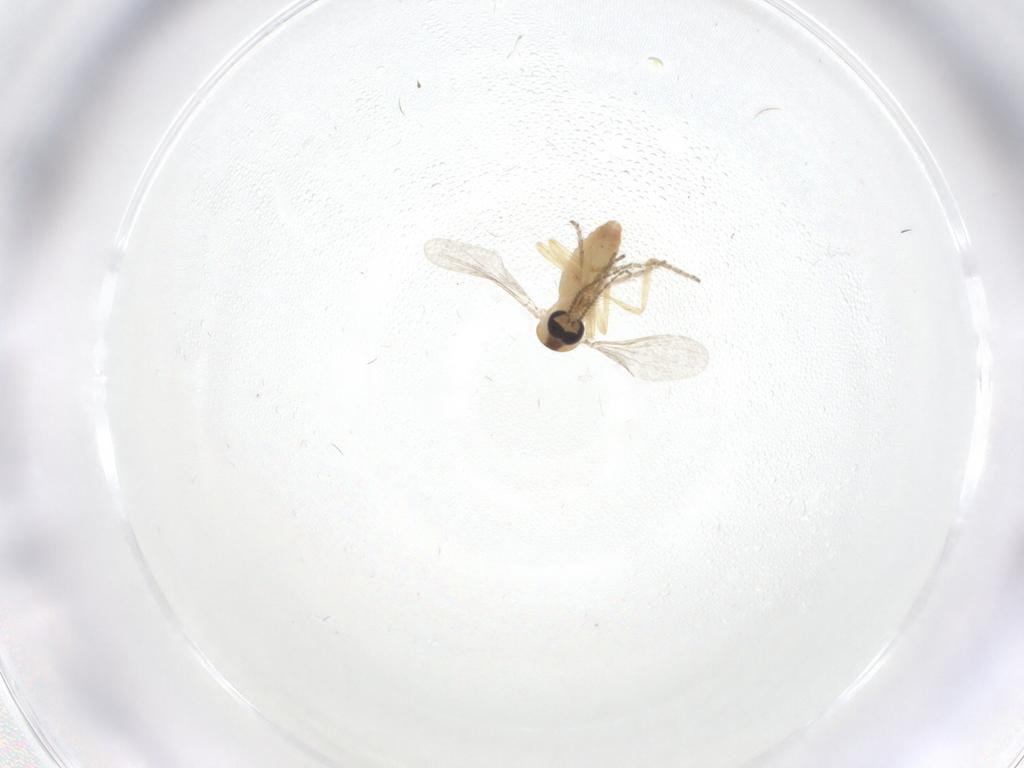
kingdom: Animalia
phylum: Arthropoda
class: Insecta
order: Diptera
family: Ceratopogonidae
